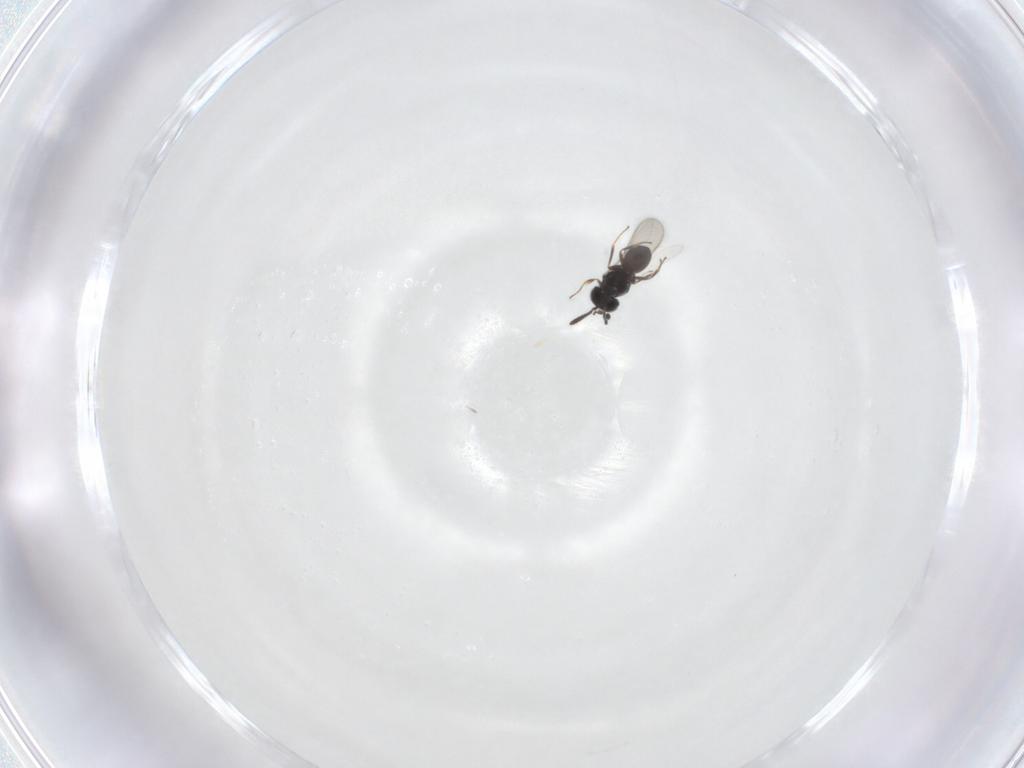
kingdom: Animalia
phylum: Arthropoda
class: Insecta
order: Hymenoptera
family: Scelionidae
